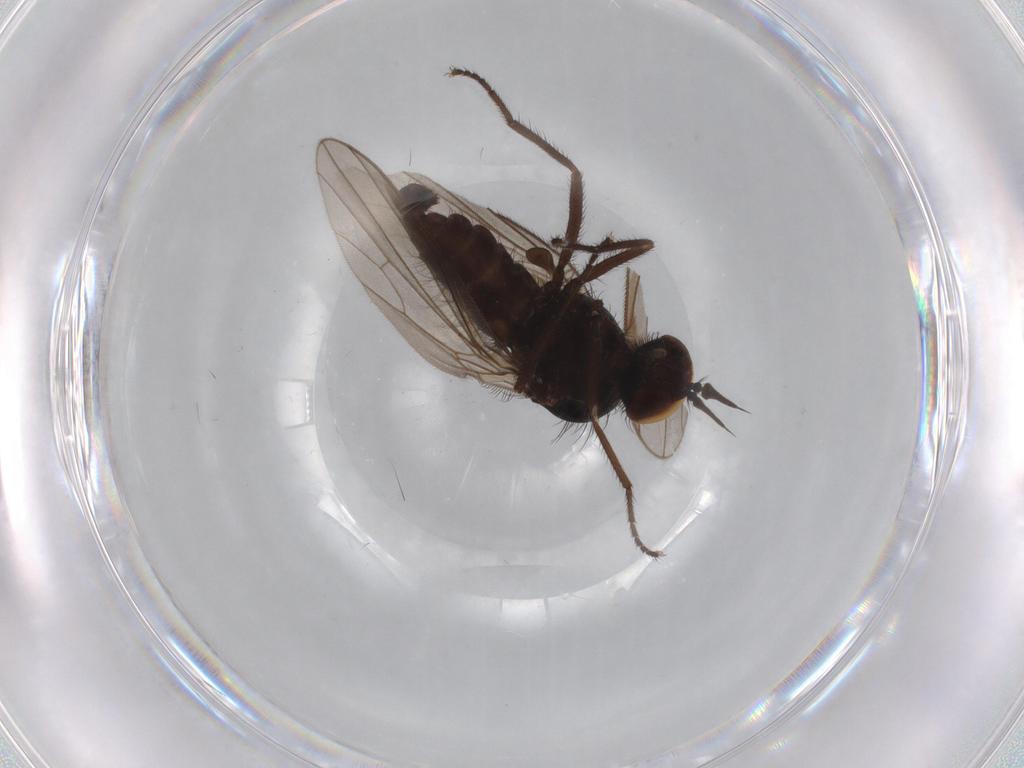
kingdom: Animalia
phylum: Arthropoda
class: Insecta
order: Diptera
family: Dolichopodidae
